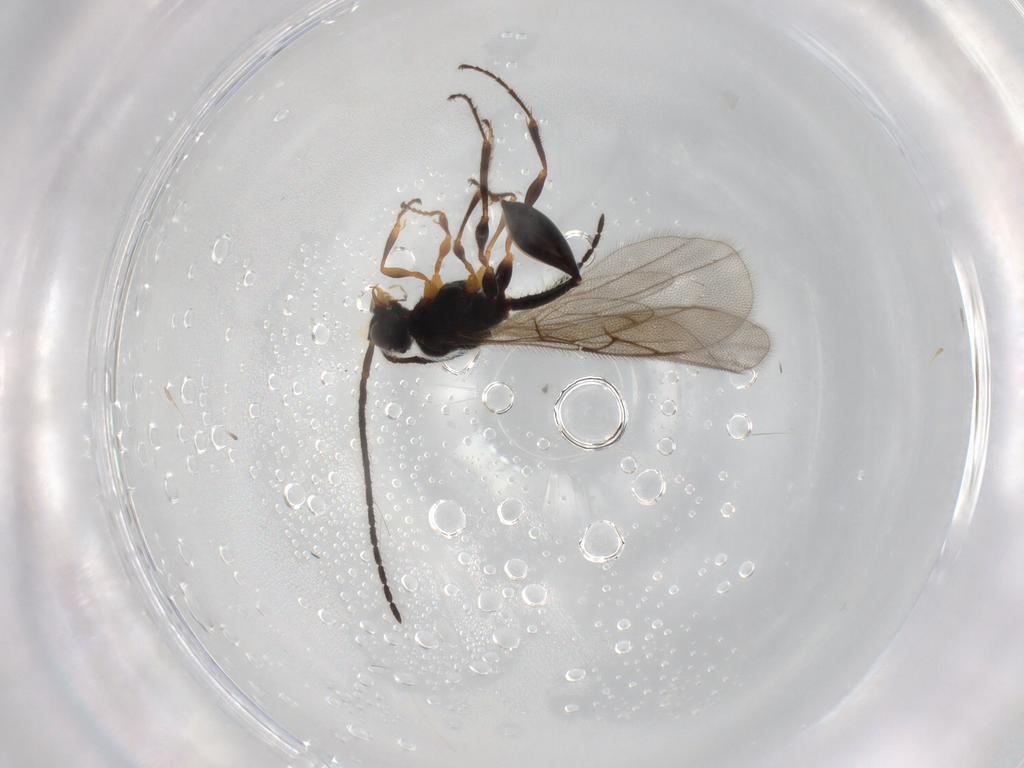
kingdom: Animalia
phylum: Arthropoda
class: Insecta
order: Hymenoptera
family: Diapriidae
